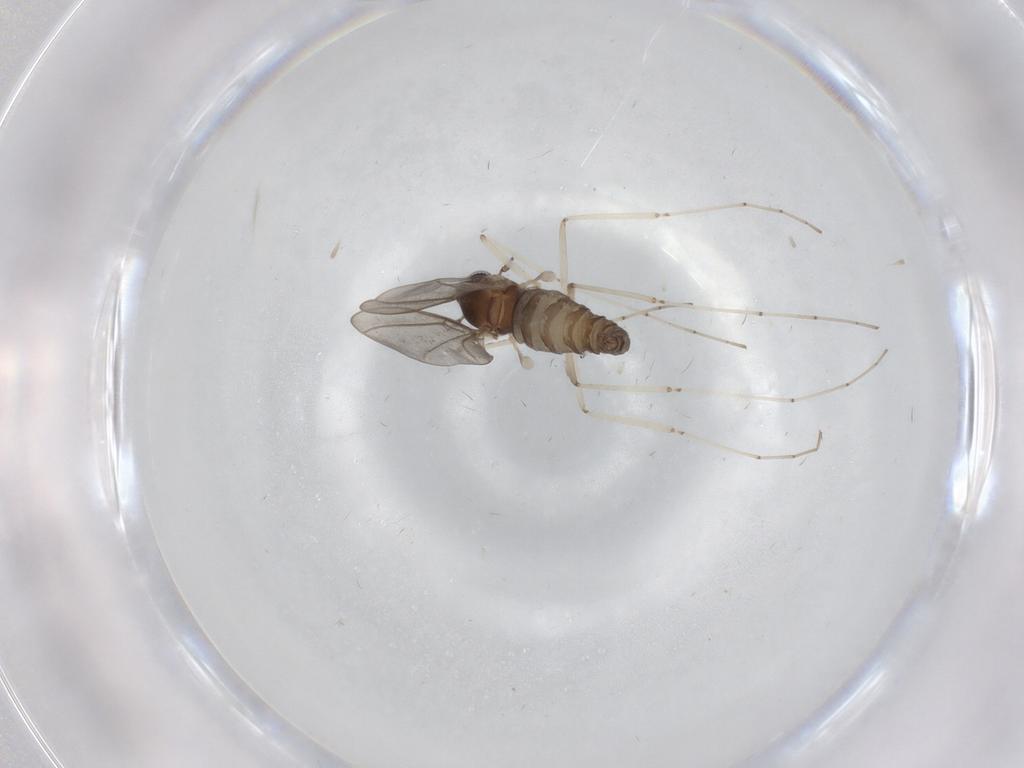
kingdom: Animalia
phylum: Arthropoda
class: Insecta
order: Diptera
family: Cecidomyiidae
